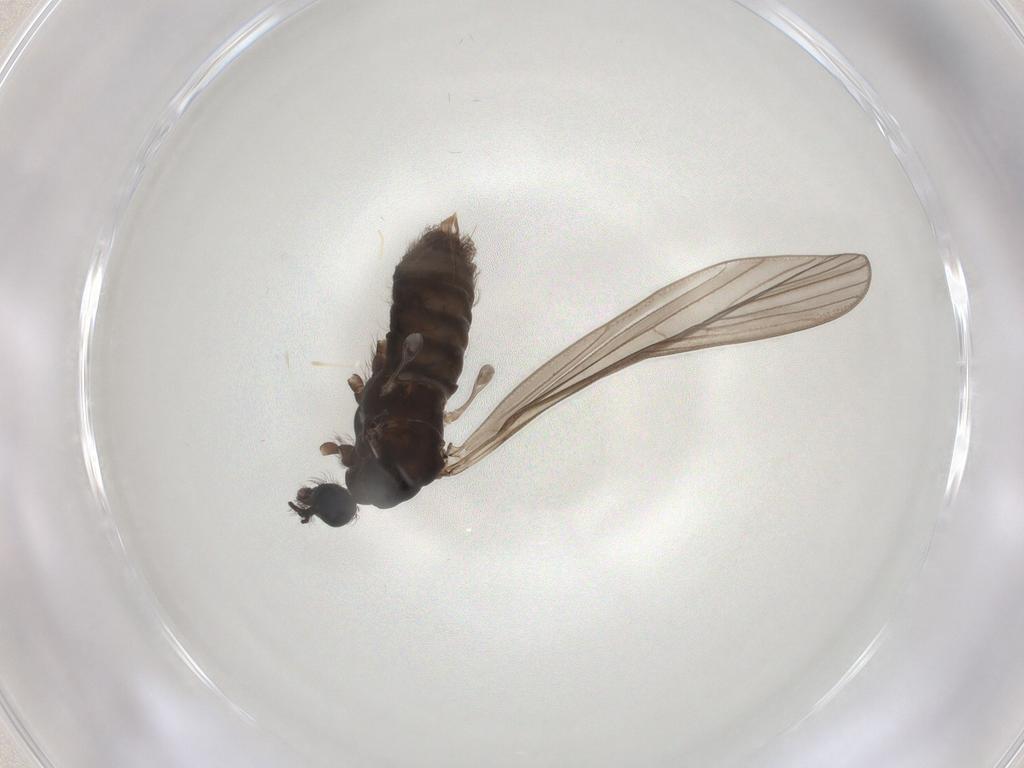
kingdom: Animalia
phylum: Arthropoda
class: Insecta
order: Diptera
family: Limoniidae
